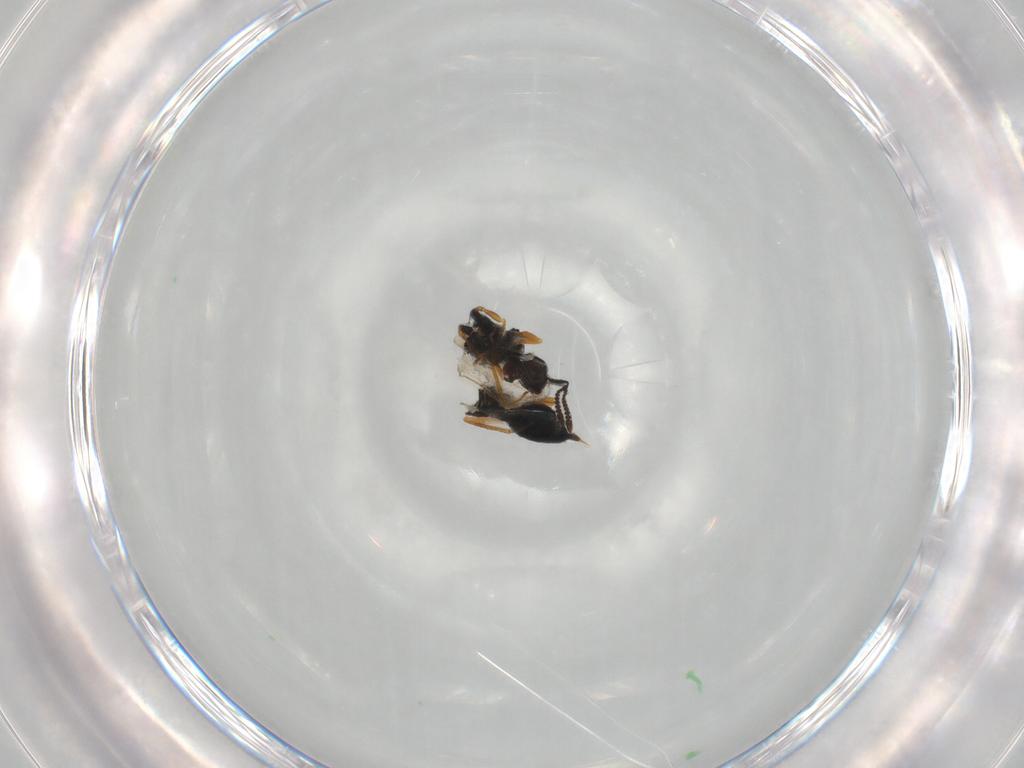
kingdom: Animalia
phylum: Arthropoda
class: Insecta
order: Hymenoptera
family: Pteromalidae
